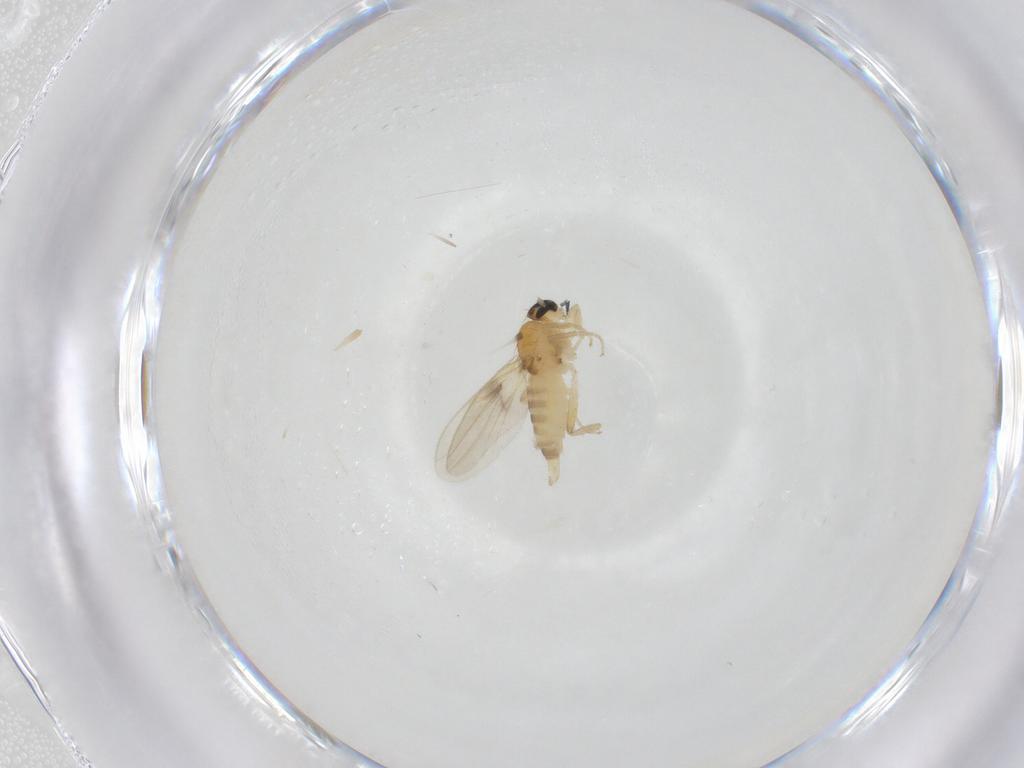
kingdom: Animalia
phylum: Arthropoda
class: Insecta
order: Diptera
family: Hybotidae
